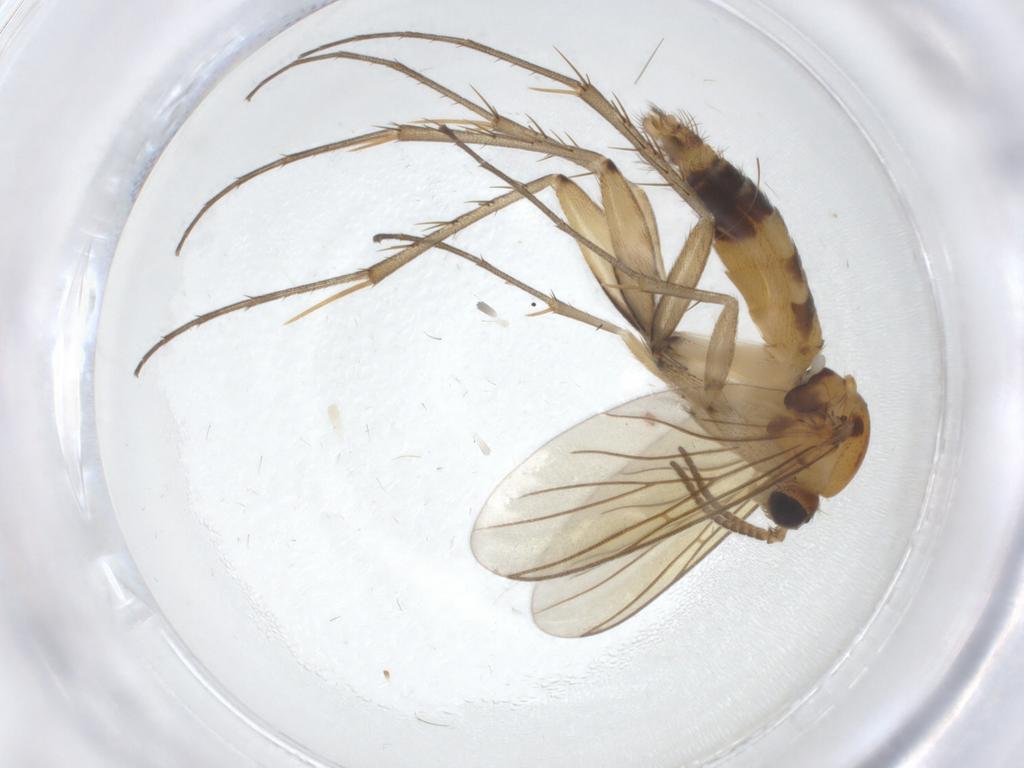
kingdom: Animalia
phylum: Arthropoda
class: Insecta
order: Diptera
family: Mycetophilidae
